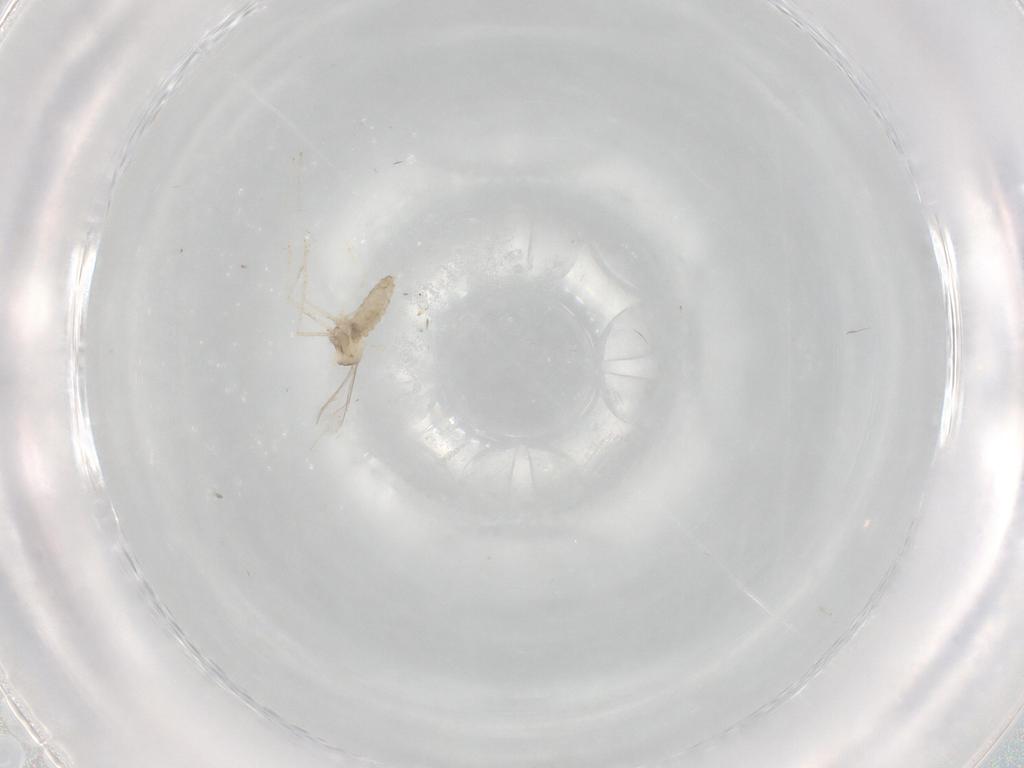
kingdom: Animalia
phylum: Arthropoda
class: Insecta
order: Diptera
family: Cecidomyiidae
